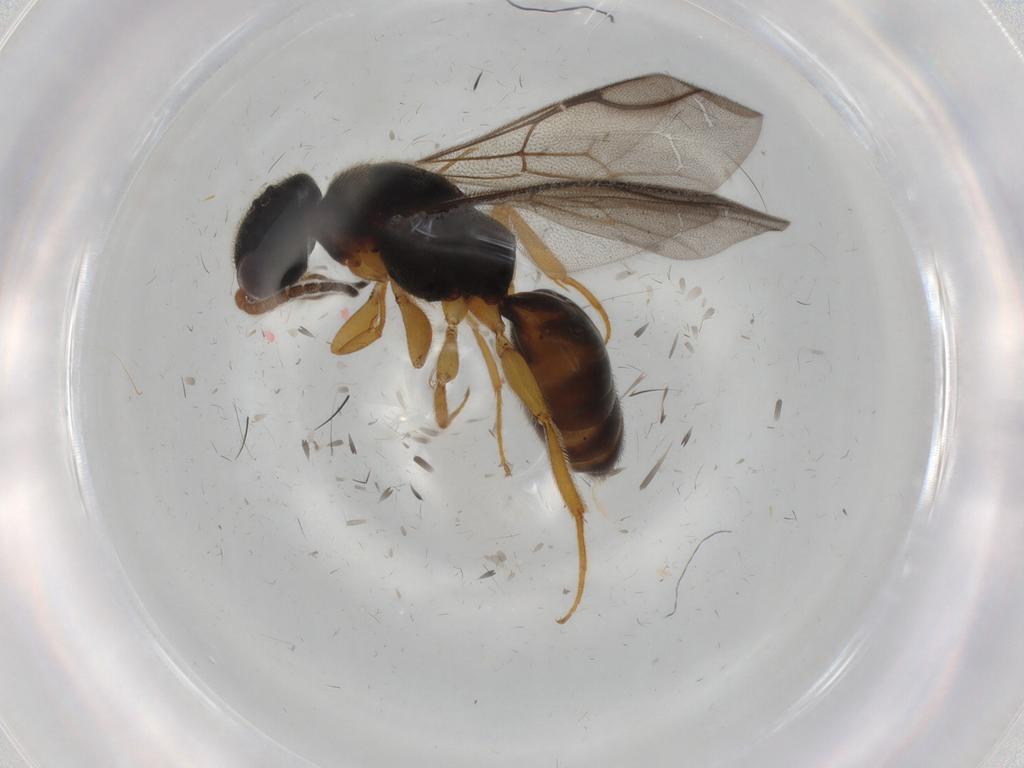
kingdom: Animalia
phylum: Arthropoda
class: Insecta
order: Hymenoptera
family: Bethylidae
